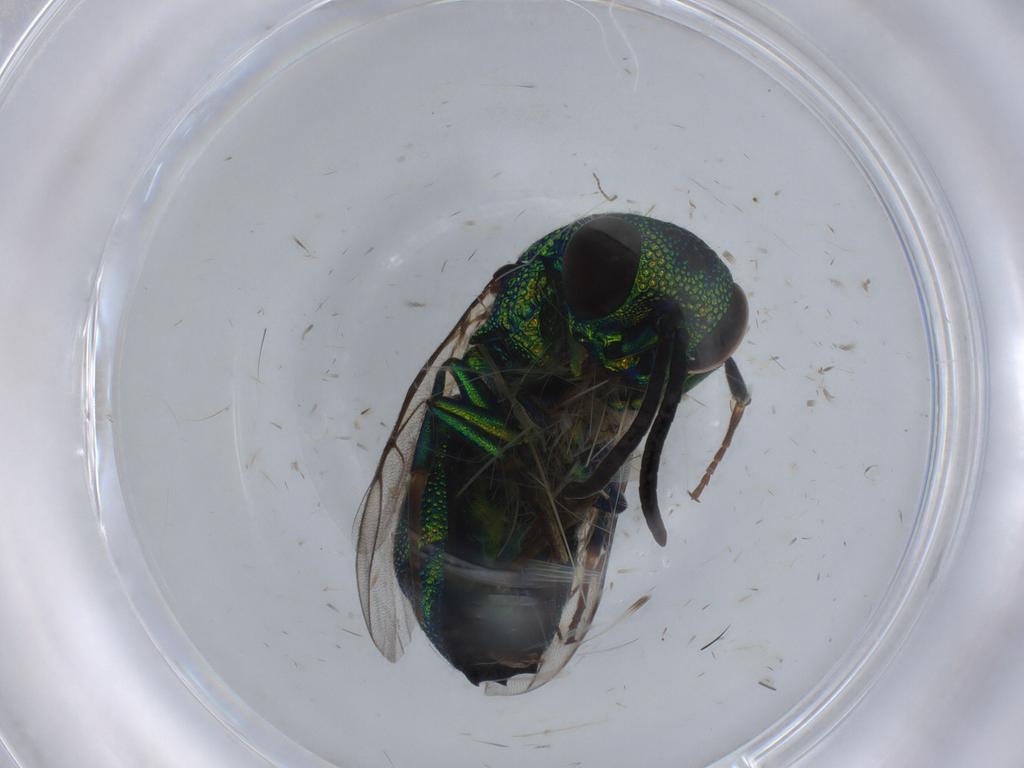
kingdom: Animalia
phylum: Arthropoda
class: Insecta
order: Hymenoptera
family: Chrysididae
